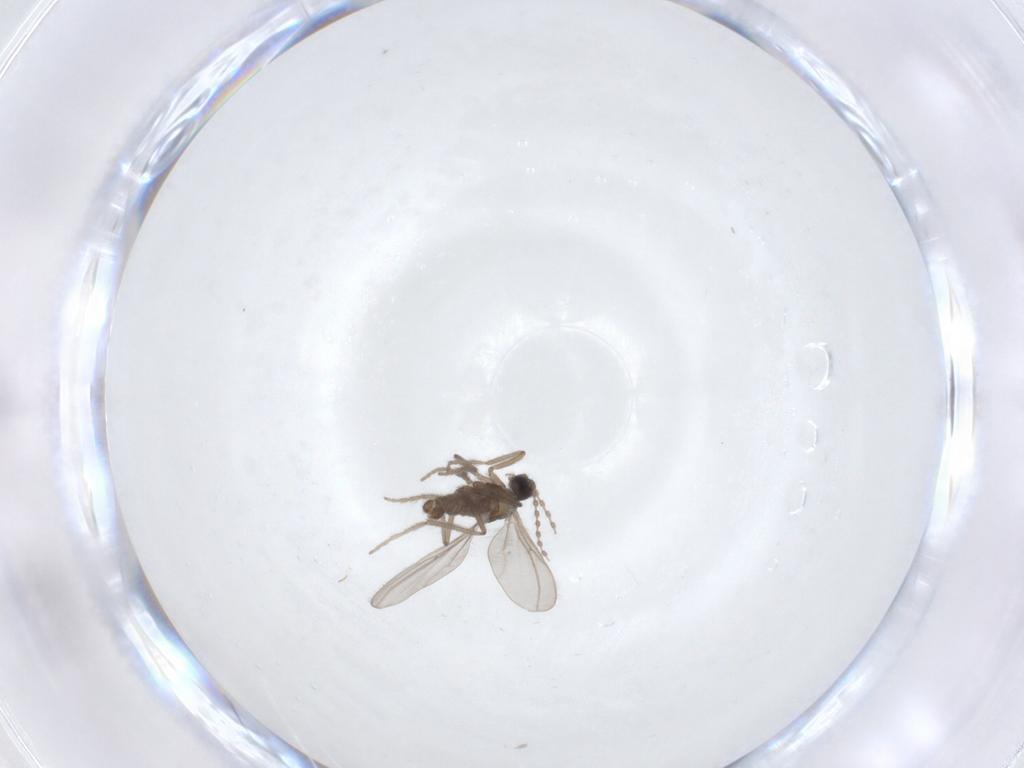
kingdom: Animalia
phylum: Arthropoda
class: Insecta
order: Diptera
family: Cecidomyiidae
